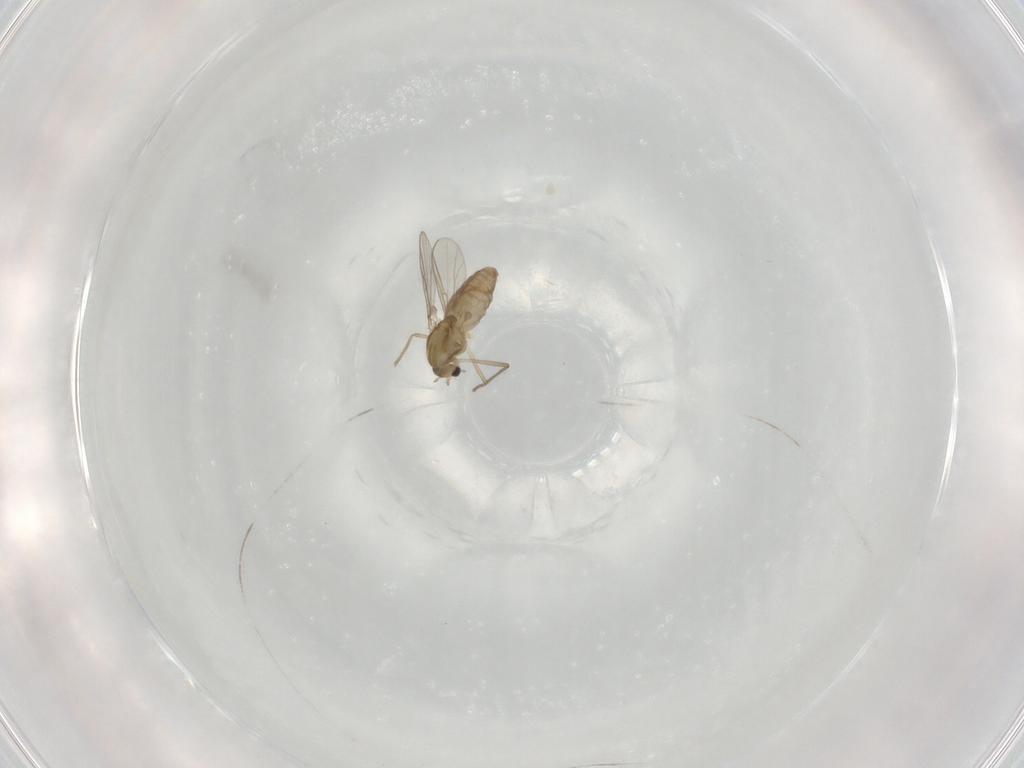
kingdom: Animalia
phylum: Arthropoda
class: Insecta
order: Diptera
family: Chironomidae
